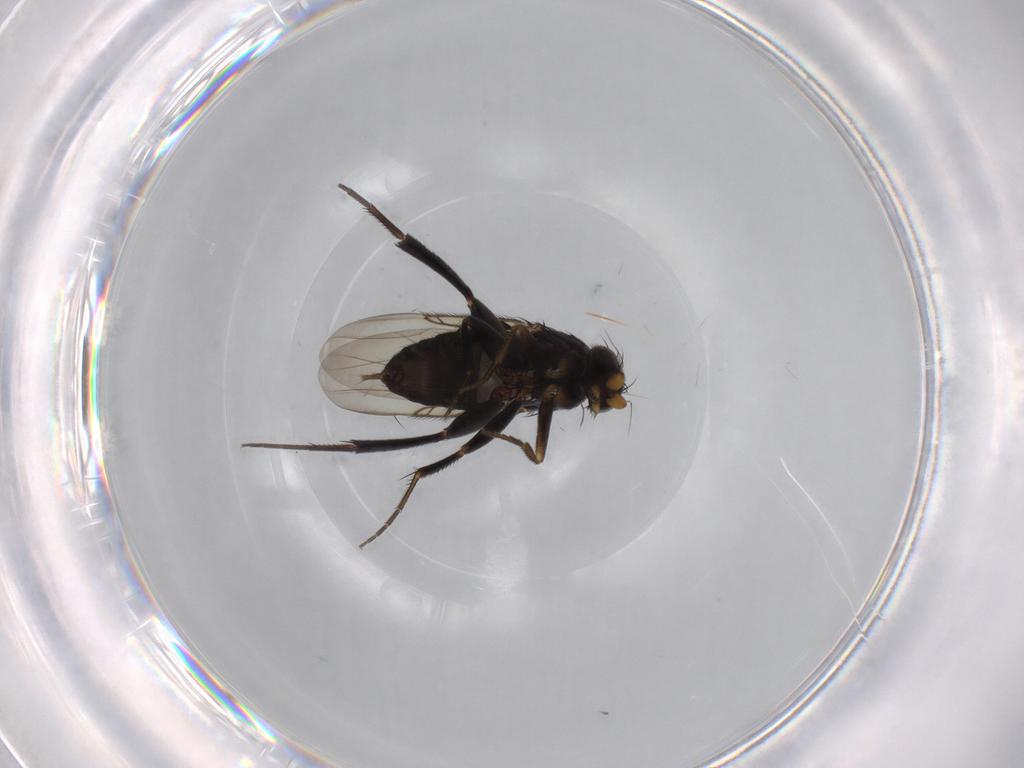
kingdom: Animalia
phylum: Arthropoda
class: Insecta
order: Diptera
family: Phoridae
